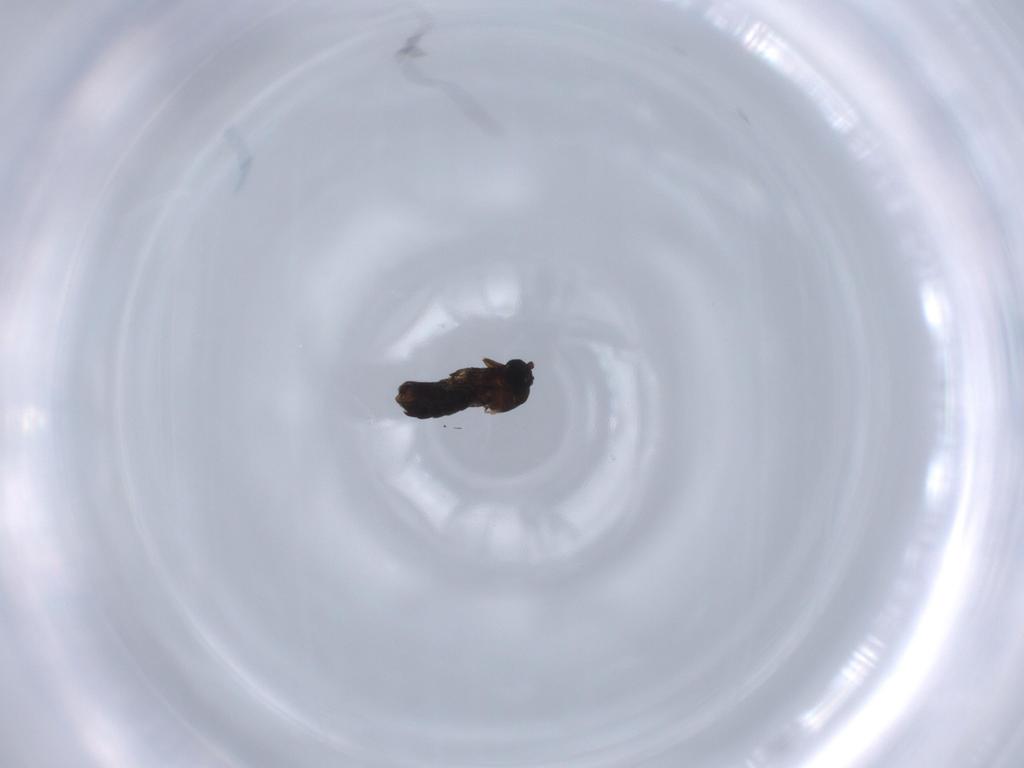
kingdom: Animalia
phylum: Arthropoda
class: Insecta
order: Diptera
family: Hybotidae
